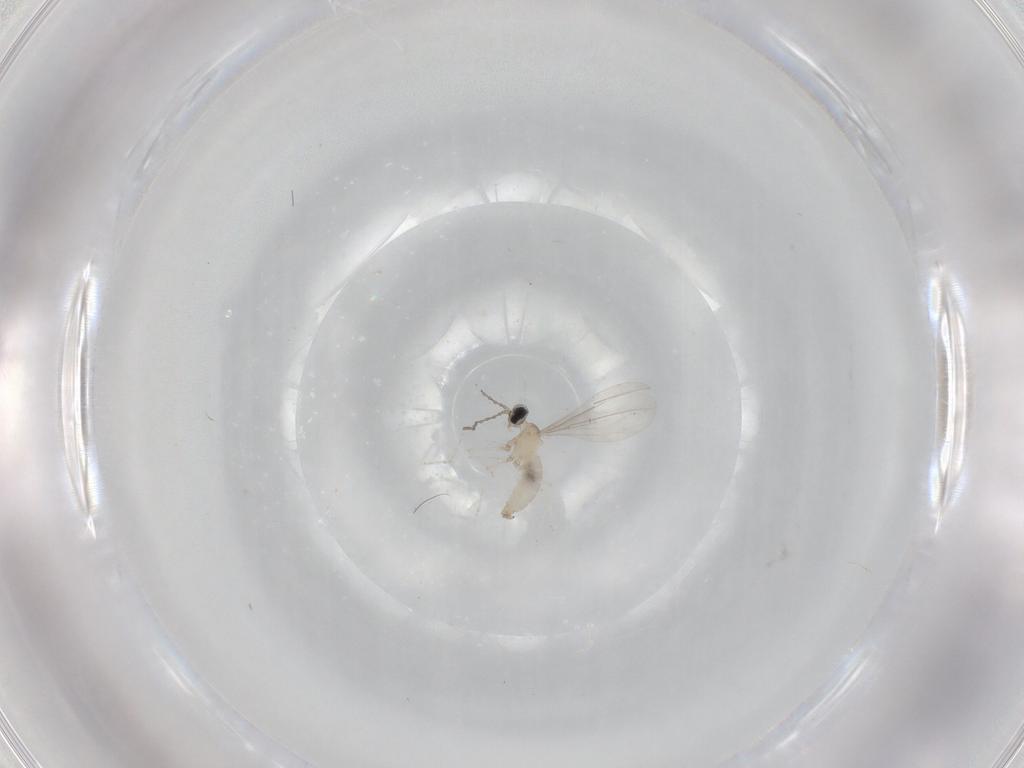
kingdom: Animalia
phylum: Arthropoda
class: Insecta
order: Diptera
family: Cecidomyiidae
